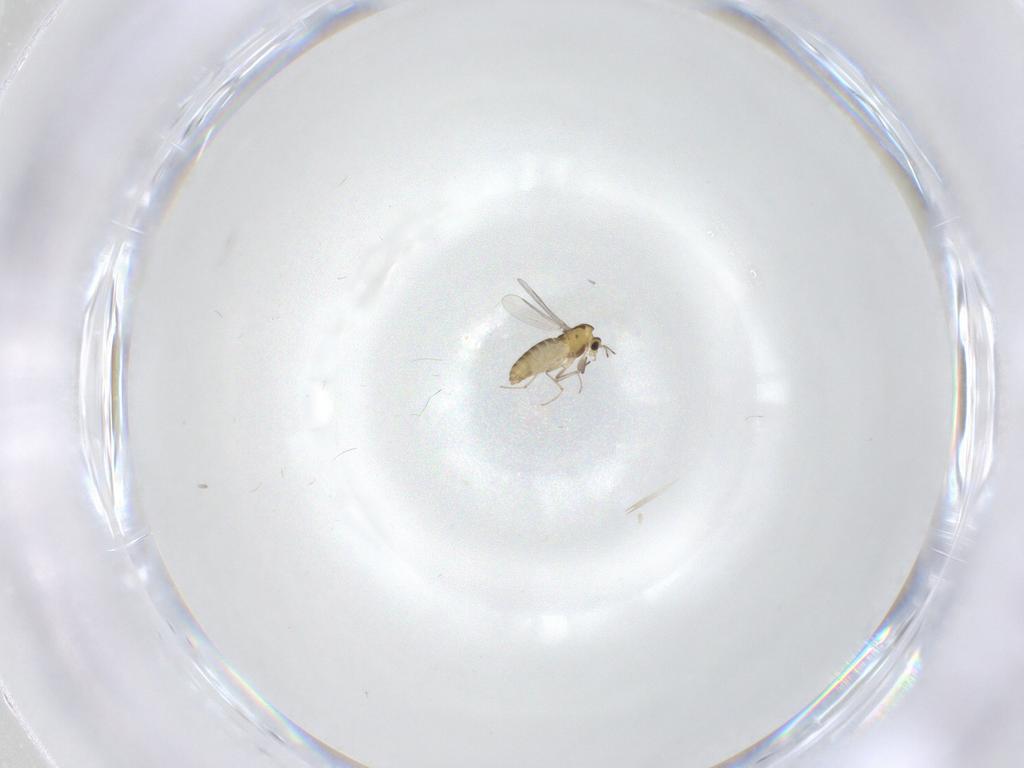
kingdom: Animalia
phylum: Arthropoda
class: Insecta
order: Diptera
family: Chironomidae
